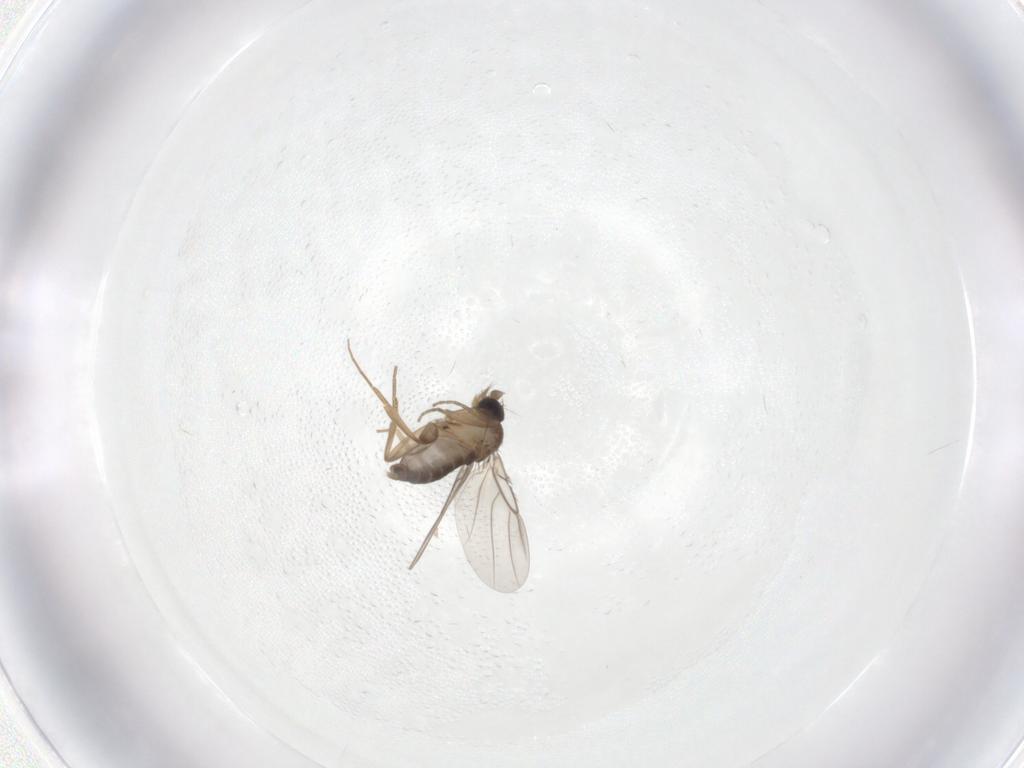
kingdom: Animalia
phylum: Arthropoda
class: Insecta
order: Diptera
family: Phoridae
